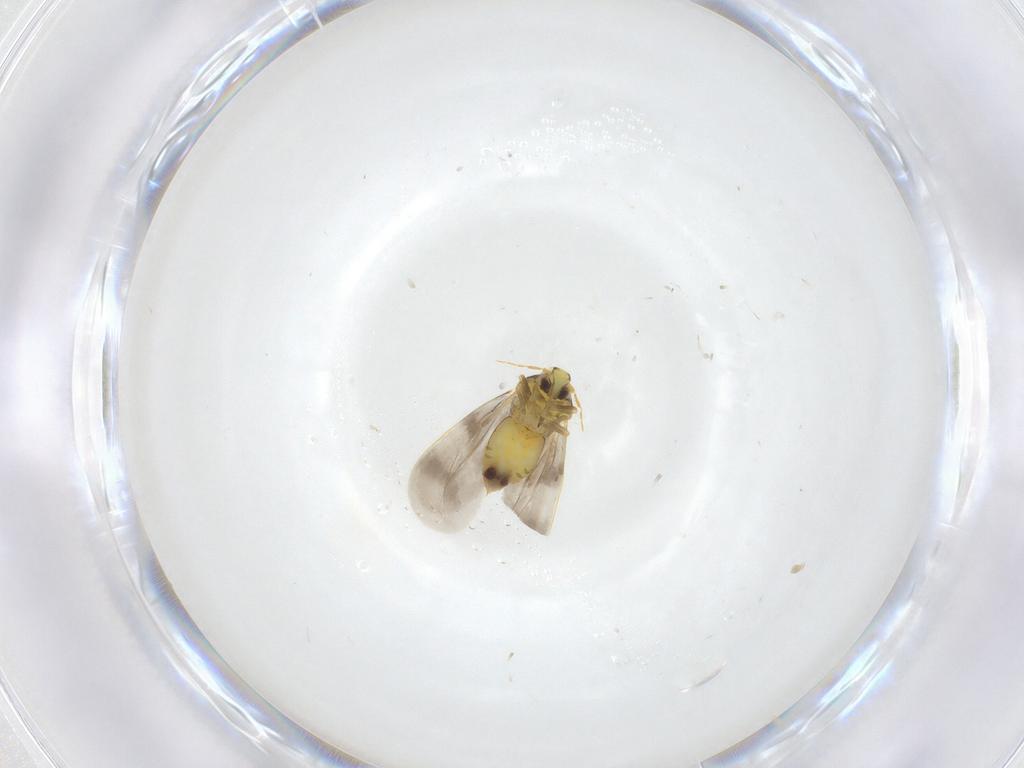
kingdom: Animalia
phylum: Arthropoda
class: Insecta
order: Hemiptera
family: Aleyrodidae
